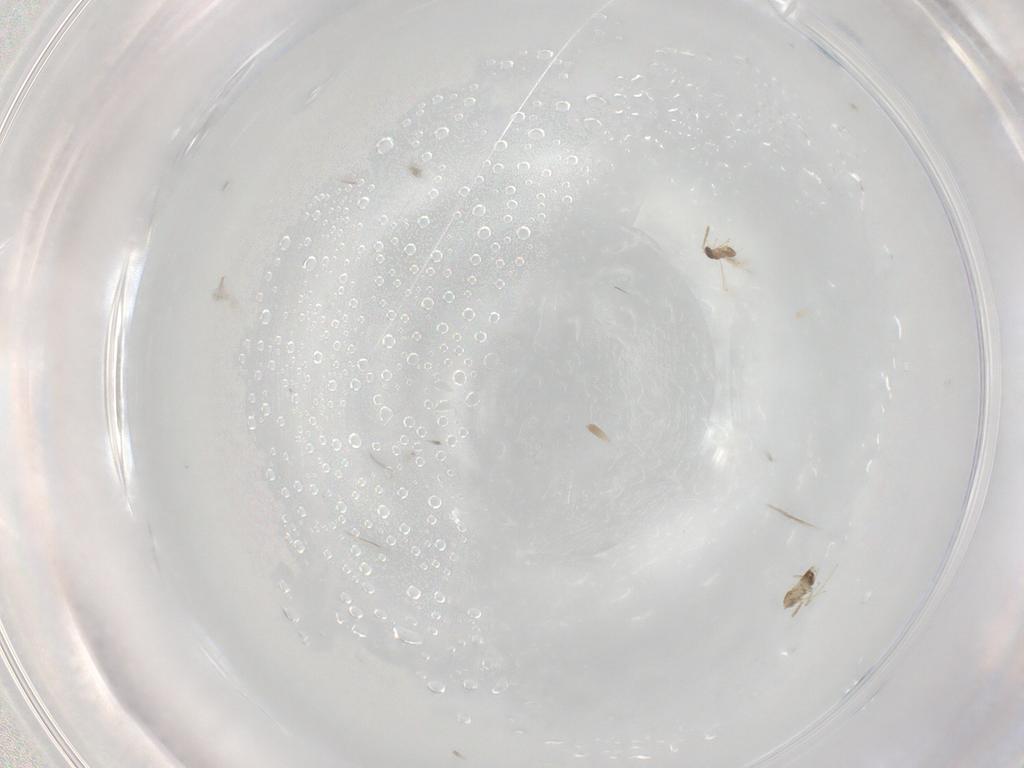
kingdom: Animalia
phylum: Arthropoda
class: Insecta
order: Hymenoptera
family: Mymaridae
